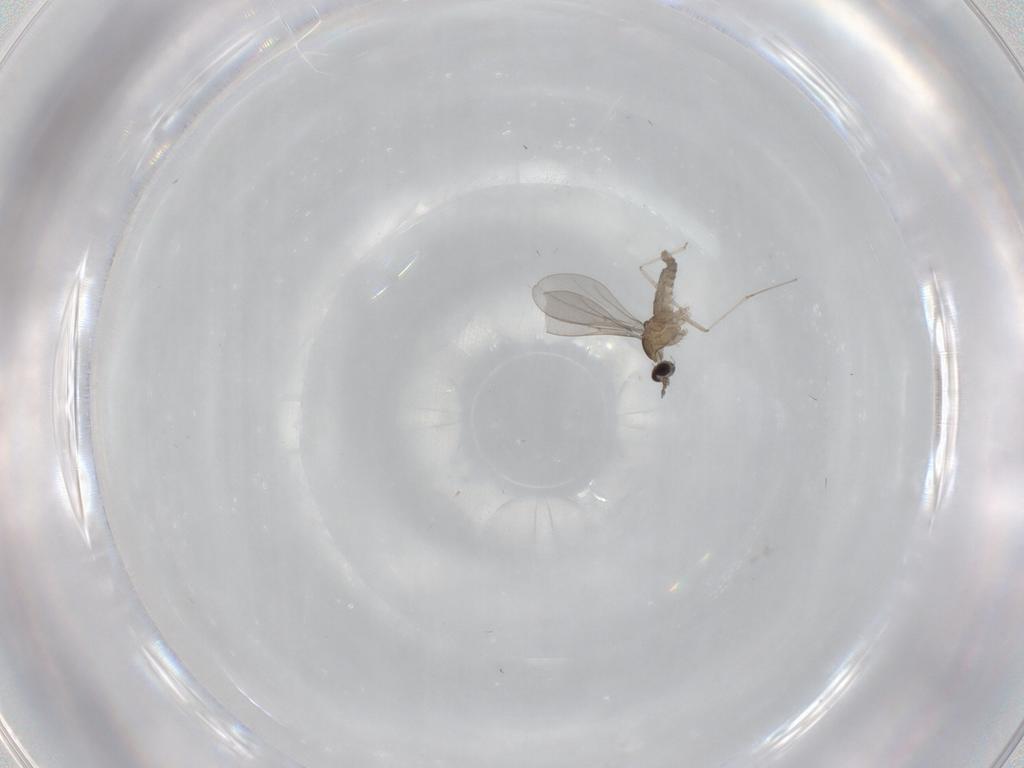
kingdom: Animalia
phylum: Arthropoda
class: Insecta
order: Diptera
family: Cecidomyiidae
